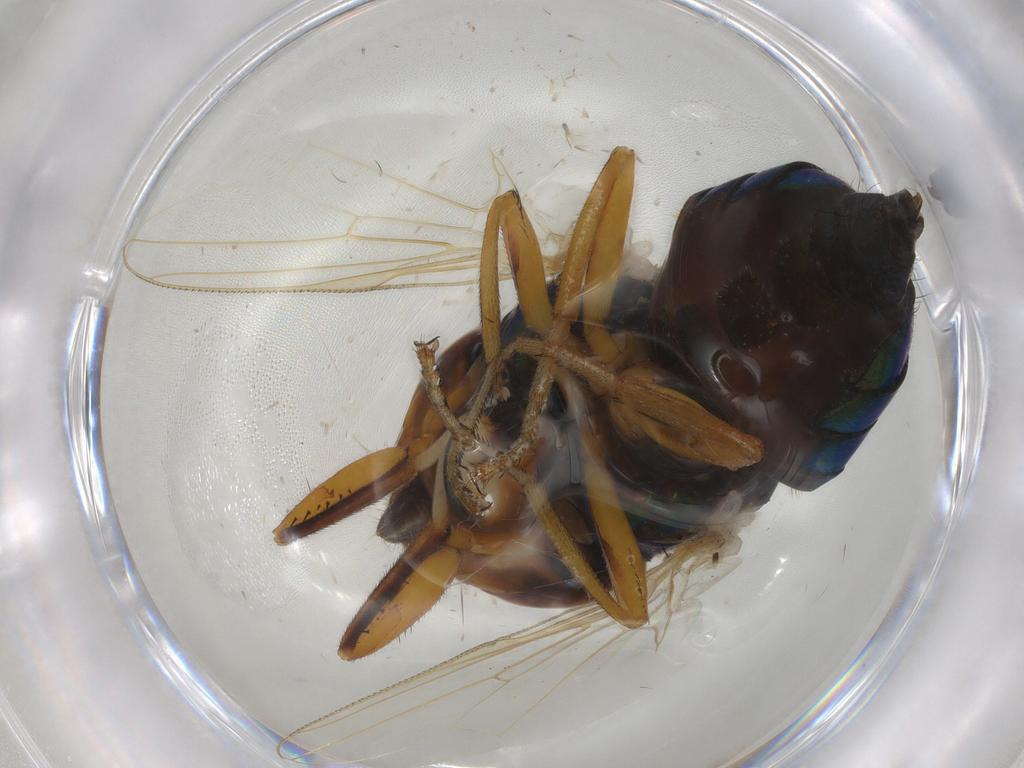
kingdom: Animalia
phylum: Arthropoda
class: Insecta
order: Diptera
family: Ulidiidae
